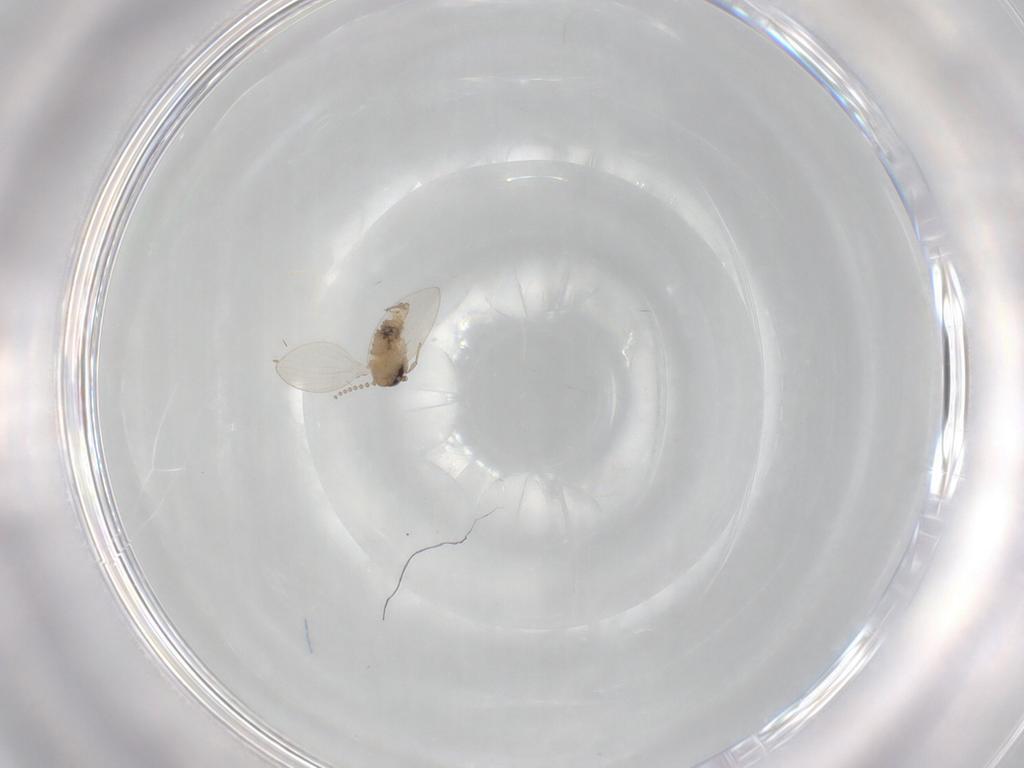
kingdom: Animalia
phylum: Arthropoda
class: Insecta
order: Diptera
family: Psychodidae
